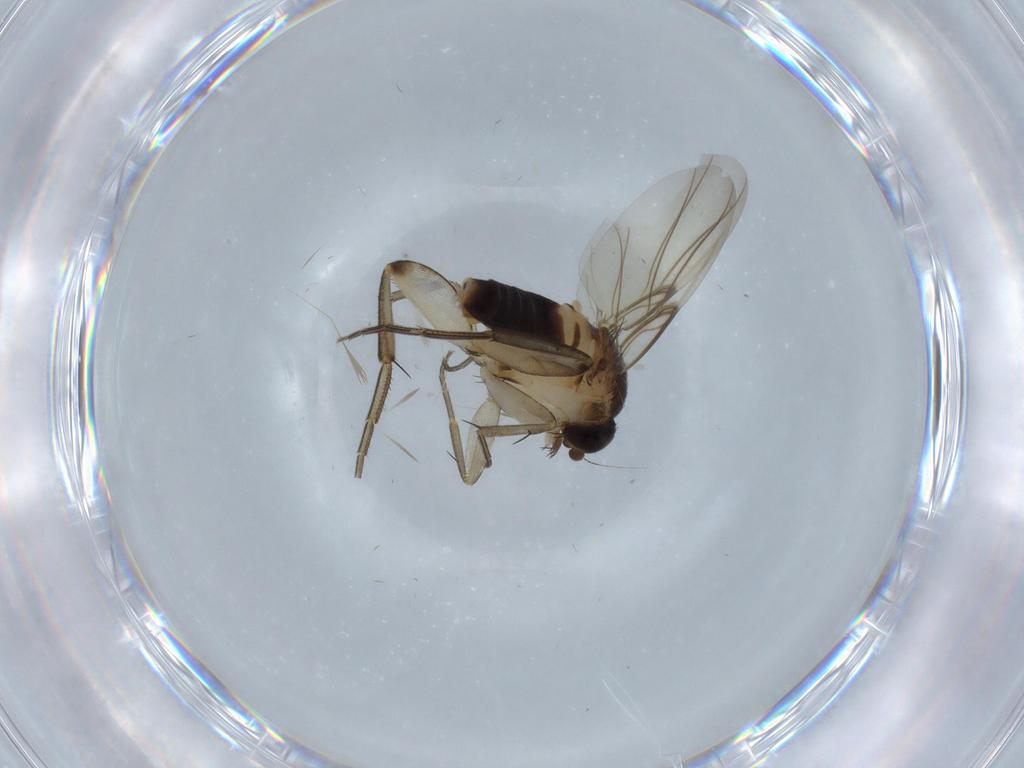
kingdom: Animalia
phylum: Arthropoda
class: Insecta
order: Diptera
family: Phoridae
